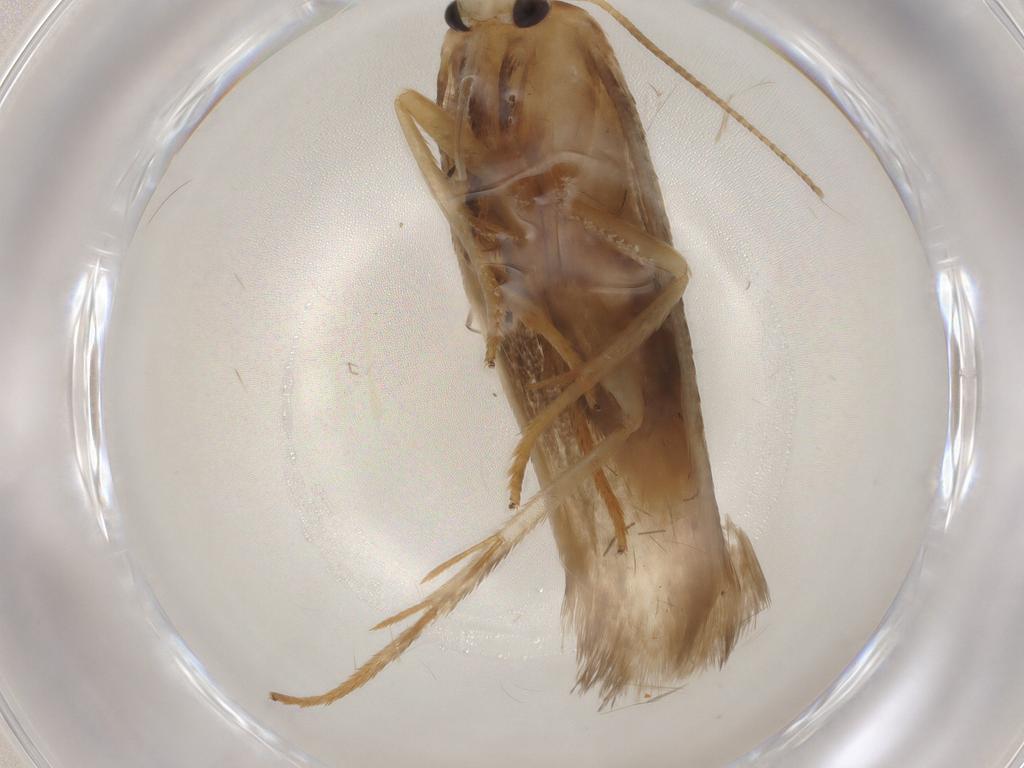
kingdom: Animalia
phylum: Arthropoda
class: Insecta
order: Lepidoptera
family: Geometridae
